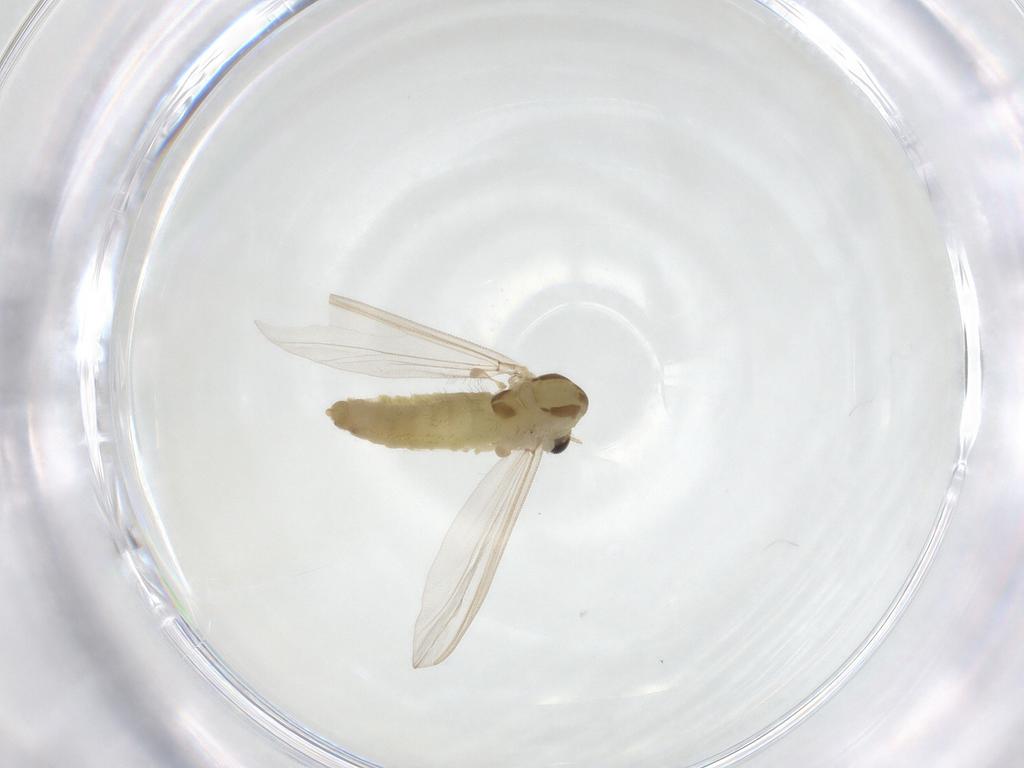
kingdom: Animalia
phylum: Arthropoda
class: Insecta
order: Diptera
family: Chironomidae
